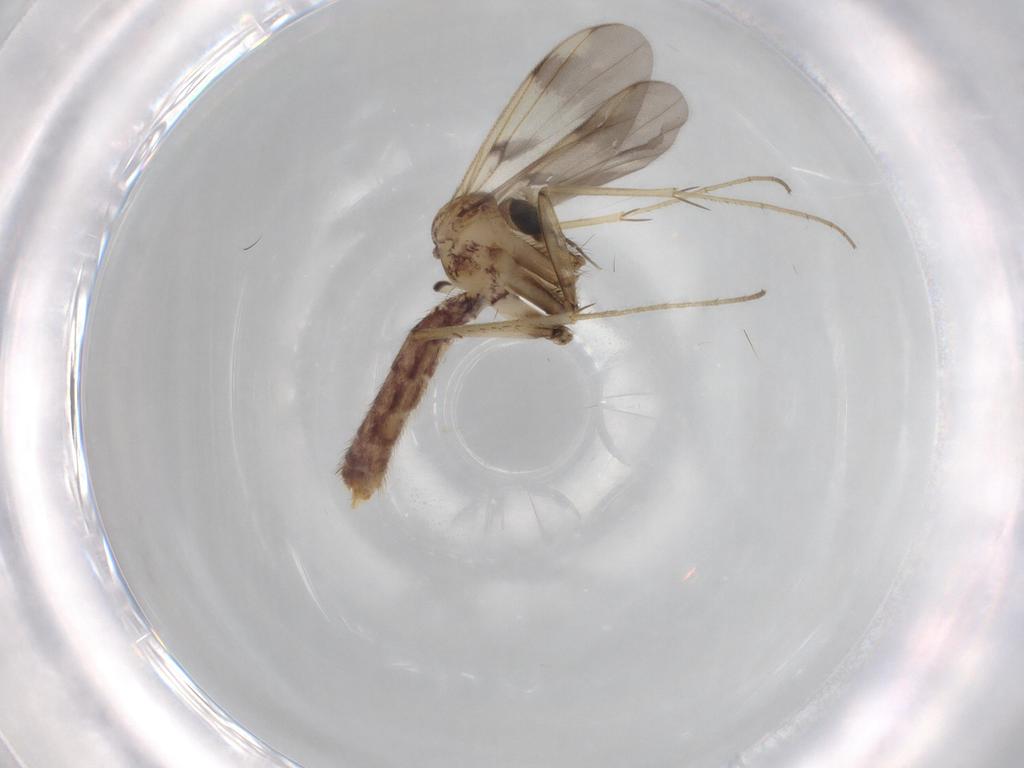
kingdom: Animalia
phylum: Arthropoda
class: Insecta
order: Diptera
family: Mycetophilidae
